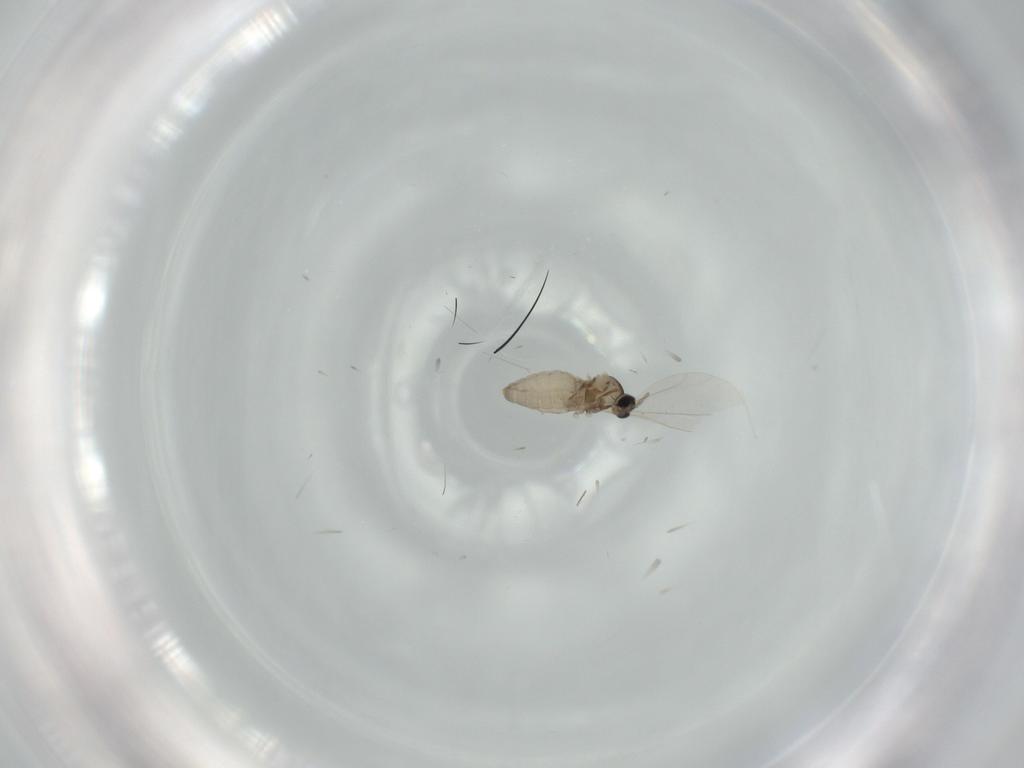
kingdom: Animalia
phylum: Arthropoda
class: Insecta
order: Diptera
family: Cecidomyiidae
